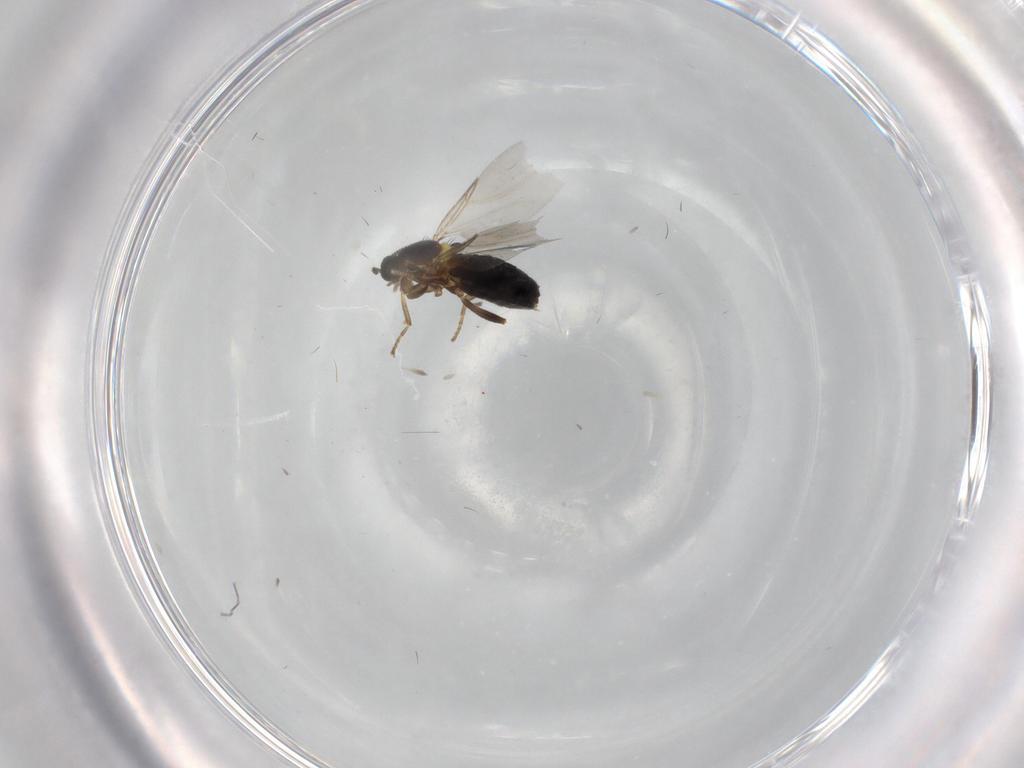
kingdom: Animalia
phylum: Arthropoda
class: Insecta
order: Diptera
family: Scatopsidae
